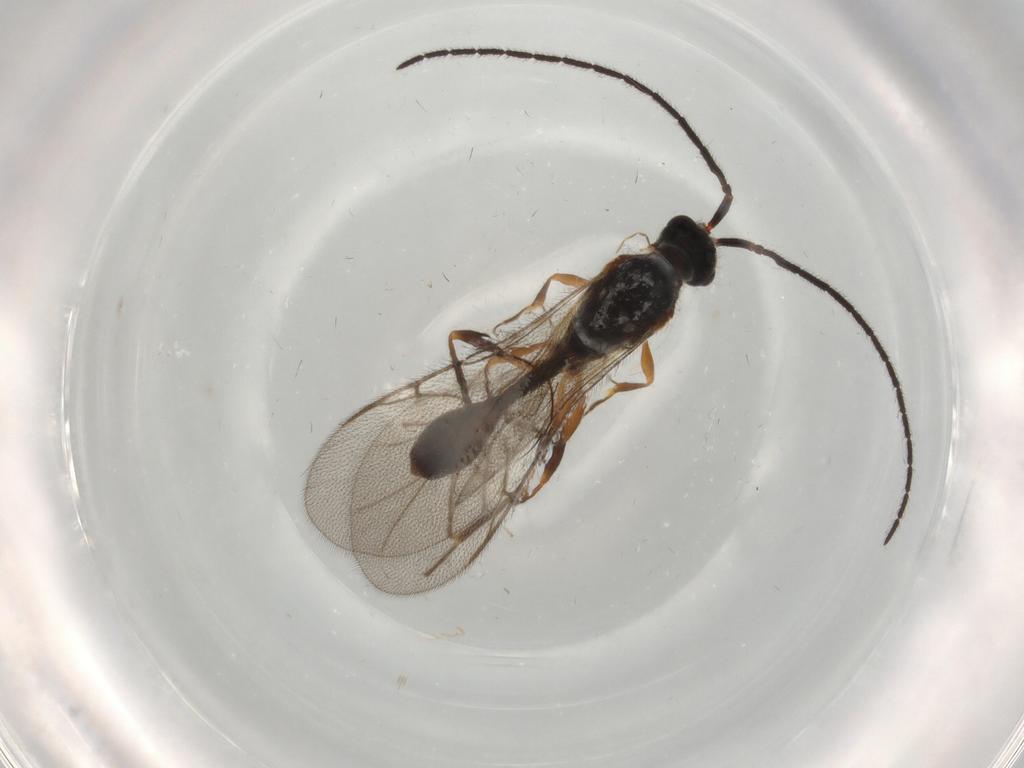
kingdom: Animalia
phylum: Arthropoda
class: Insecta
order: Hymenoptera
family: Diapriidae
